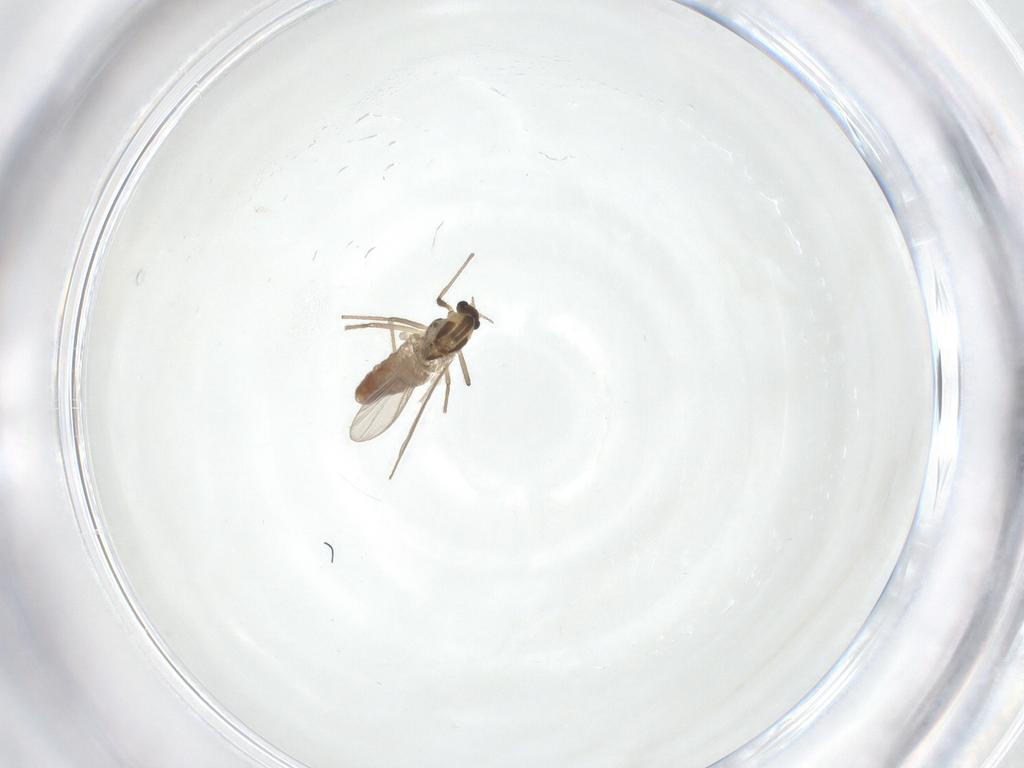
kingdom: Animalia
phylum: Arthropoda
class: Insecta
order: Diptera
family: Chironomidae
